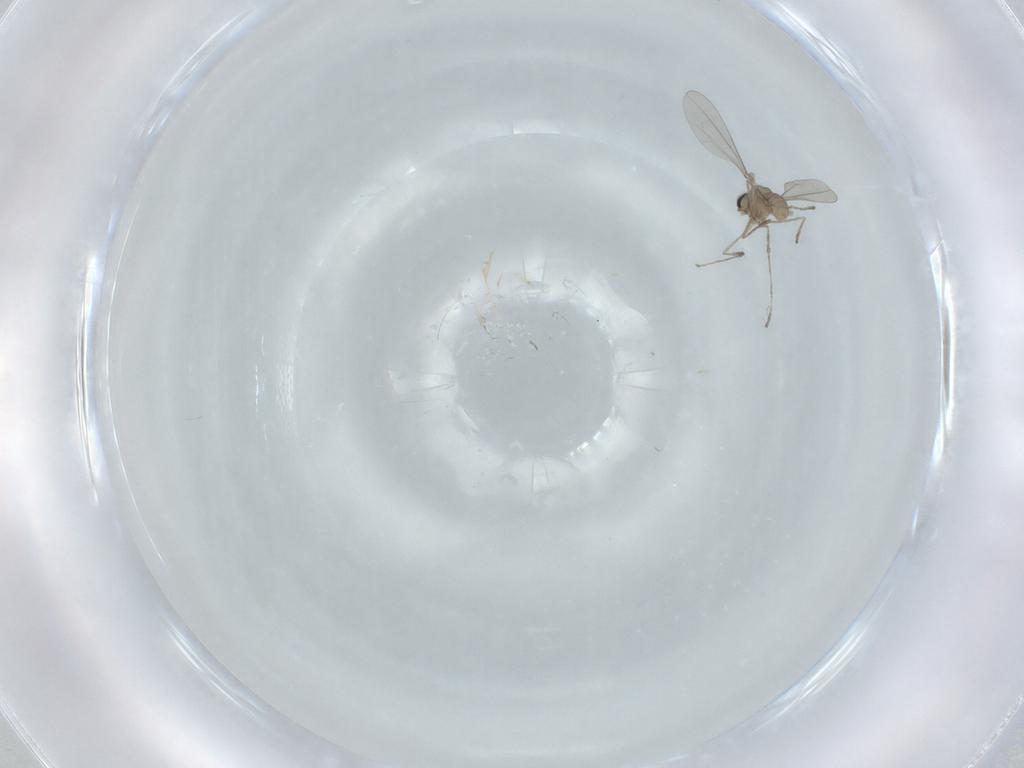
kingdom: Animalia
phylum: Arthropoda
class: Insecta
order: Diptera
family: Cecidomyiidae
